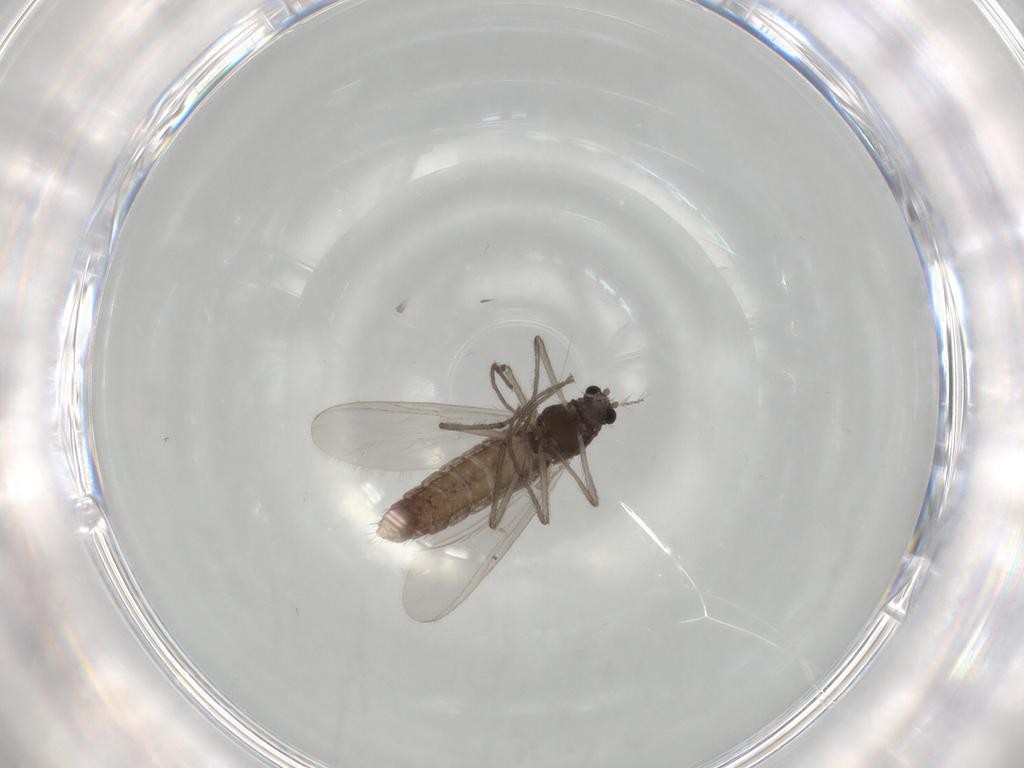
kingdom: Animalia
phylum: Arthropoda
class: Insecta
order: Diptera
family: Chironomidae
